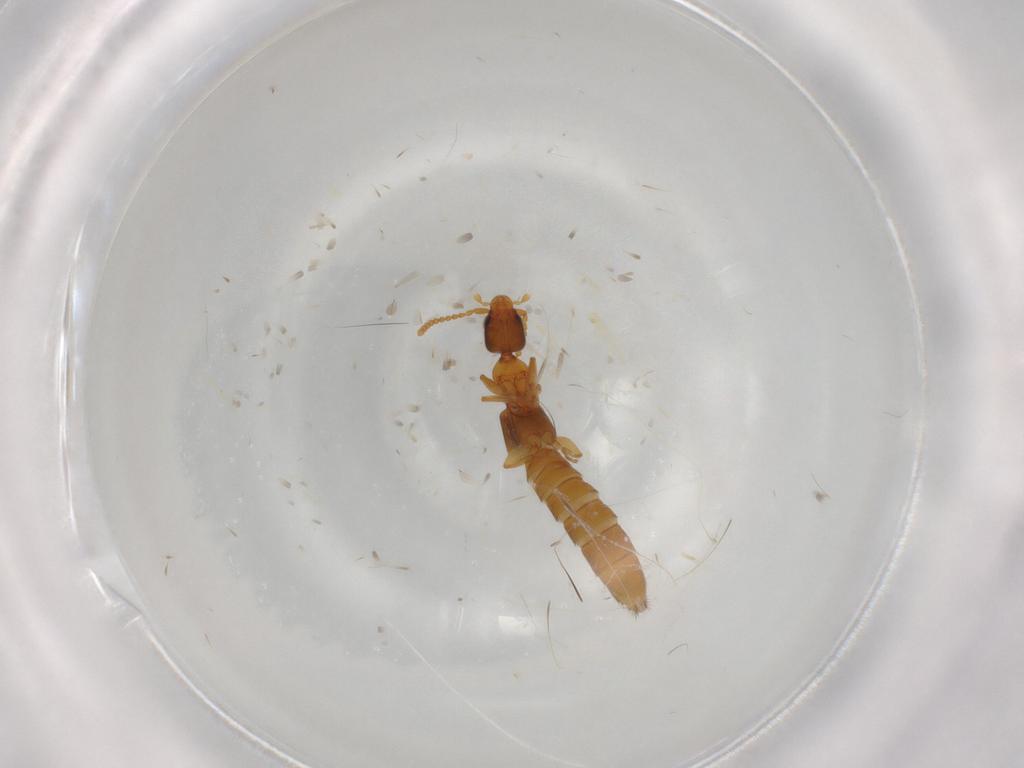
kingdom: Animalia
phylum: Arthropoda
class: Insecta
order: Coleoptera
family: Staphylinidae
